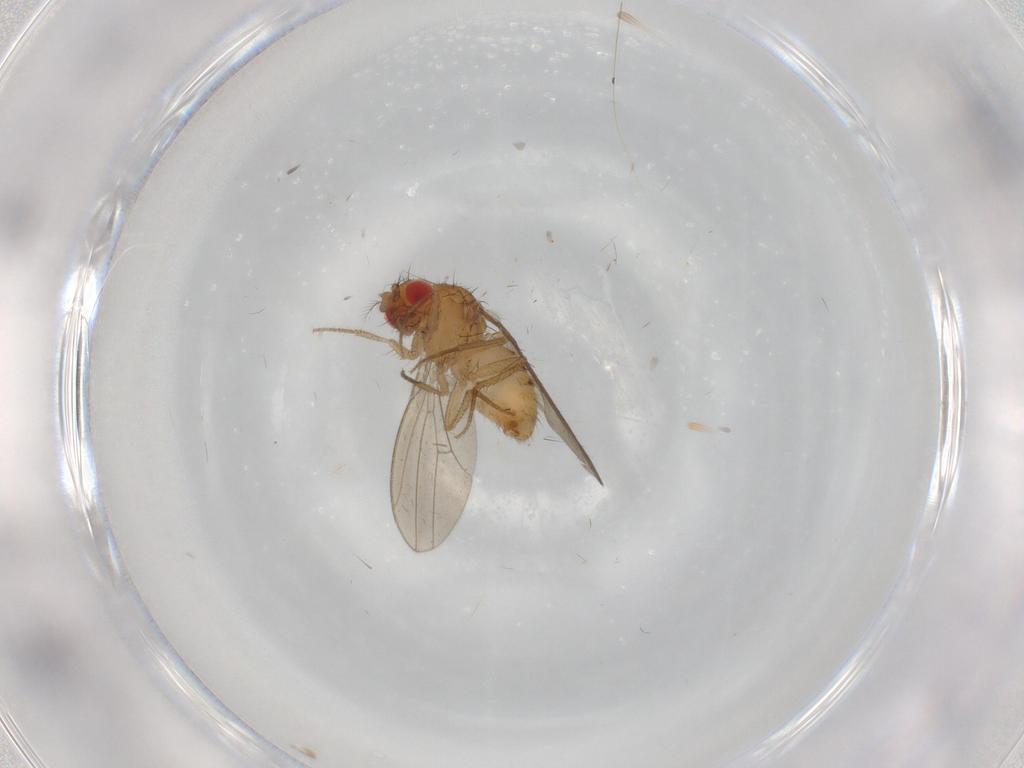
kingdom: Animalia
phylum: Arthropoda
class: Insecta
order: Diptera
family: Drosophilidae
